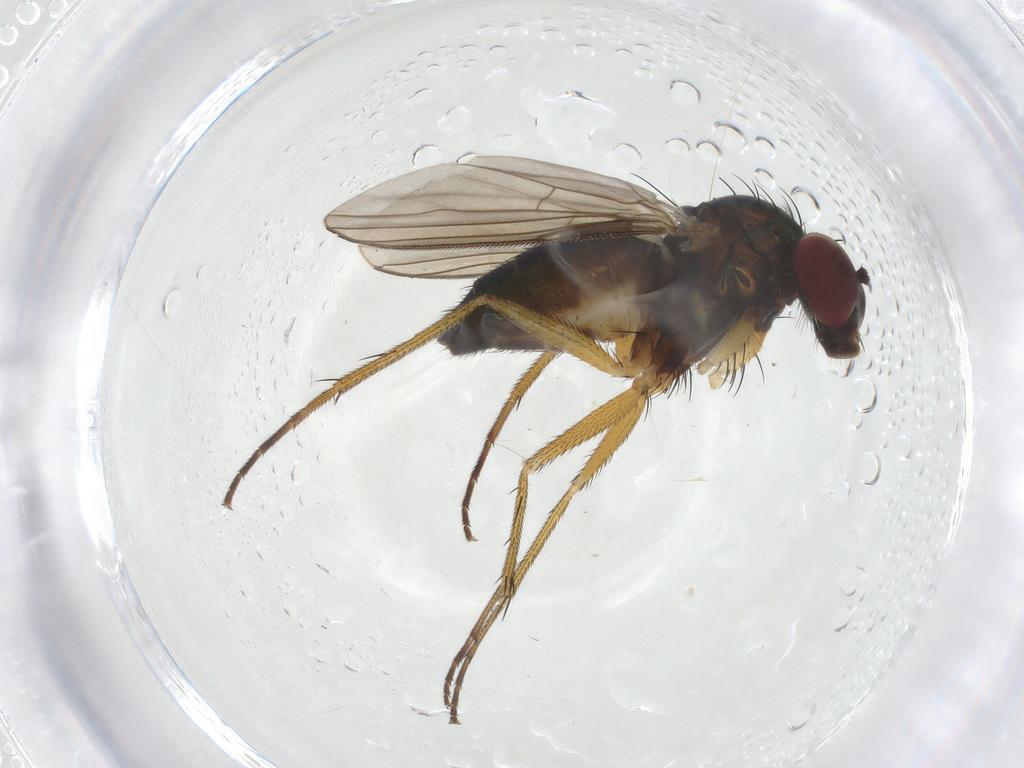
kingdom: Animalia
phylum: Arthropoda
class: Insecta
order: Diptera
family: Dolichopodidae
